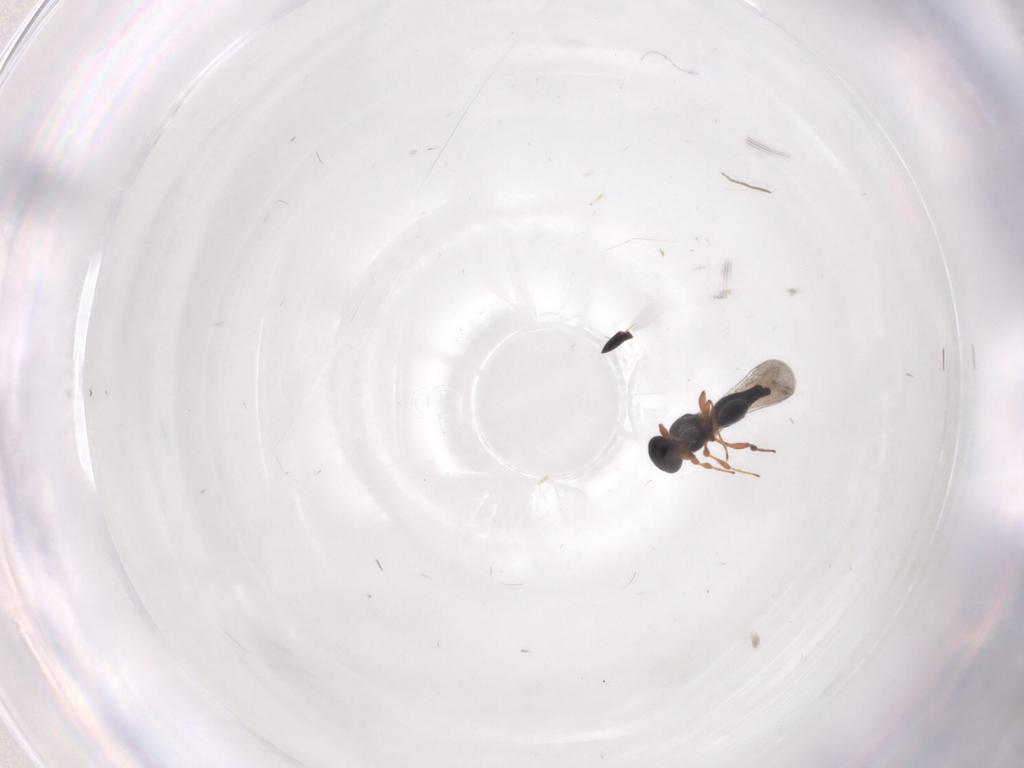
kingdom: Animalia
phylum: Arthropoda
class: Insecta
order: Hymenoptera
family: Platygastridae
